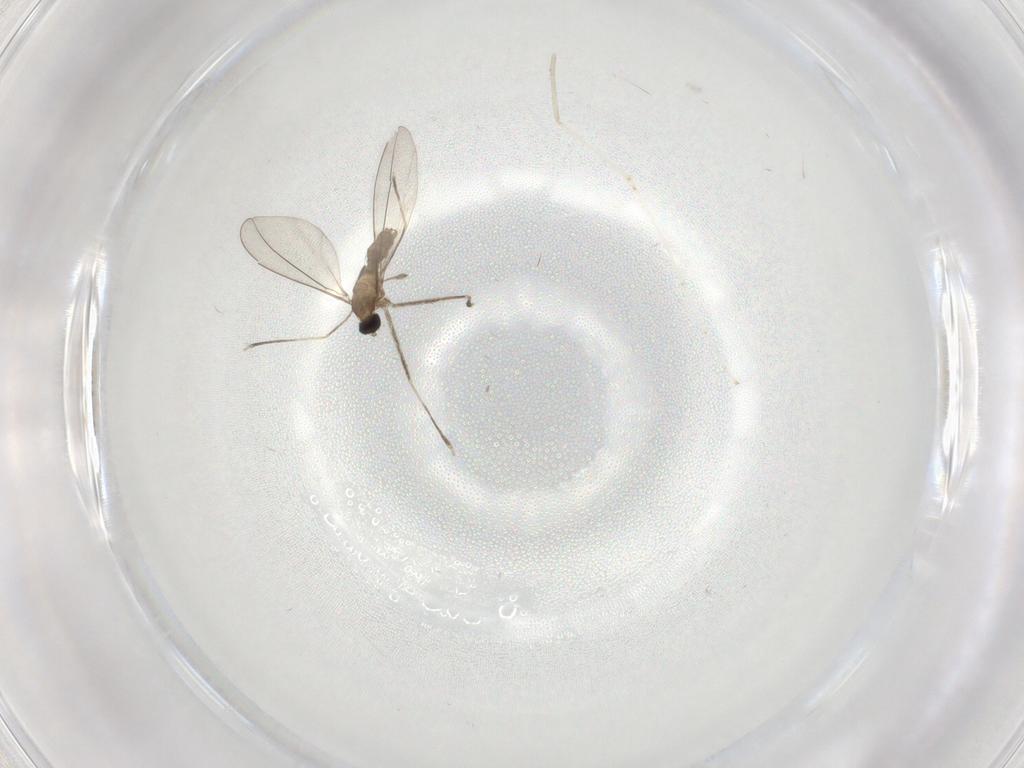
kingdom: Animalia
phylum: Arthropoda
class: Insecta
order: Diptera
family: Cecidomyiidae
